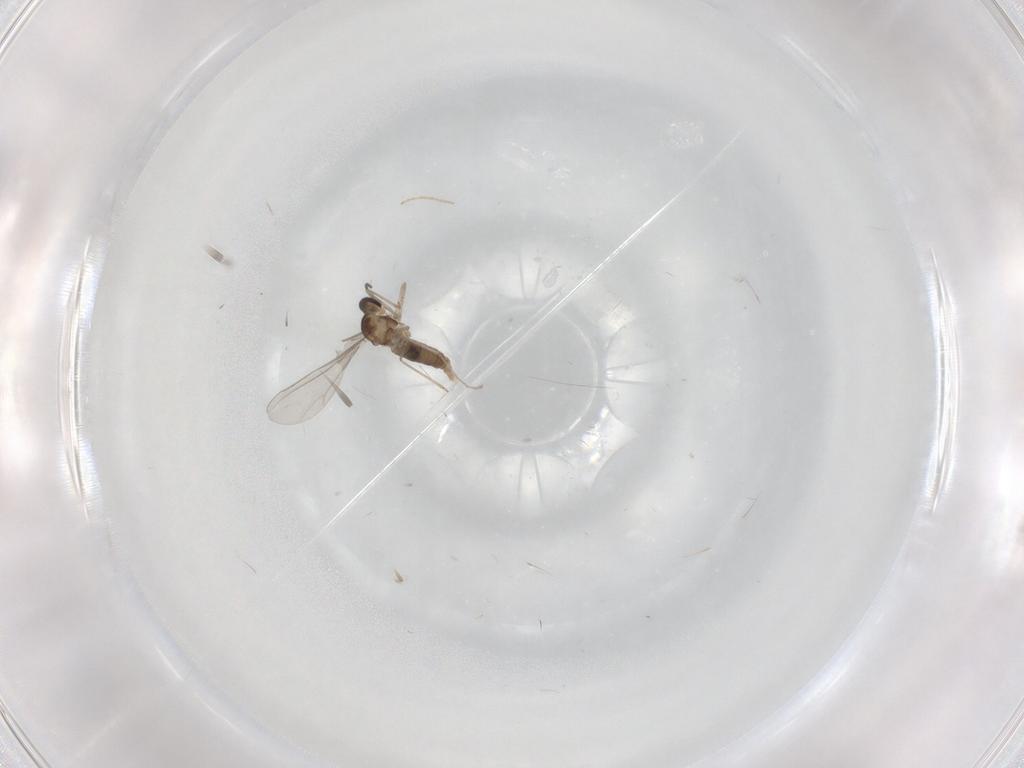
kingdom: Animalia
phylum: Arthropoda
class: Insecta
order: Diptera
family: Chironomidae
